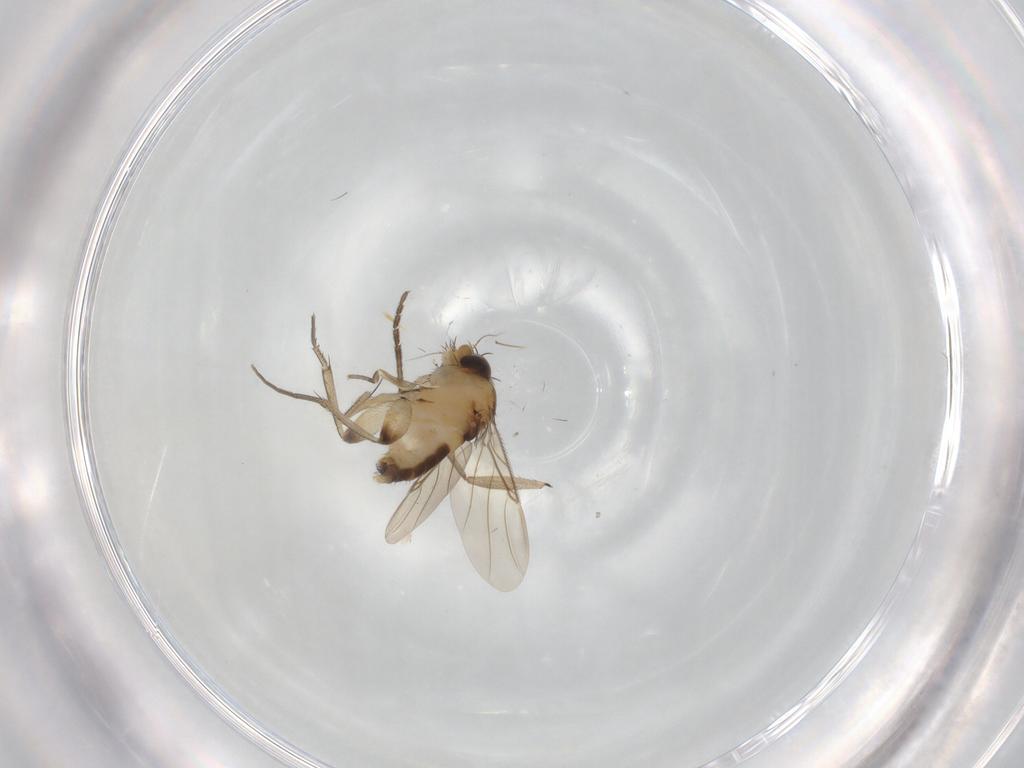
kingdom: Animalia
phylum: Arthropoda
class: Insecta
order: Diptera
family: Phoridae
